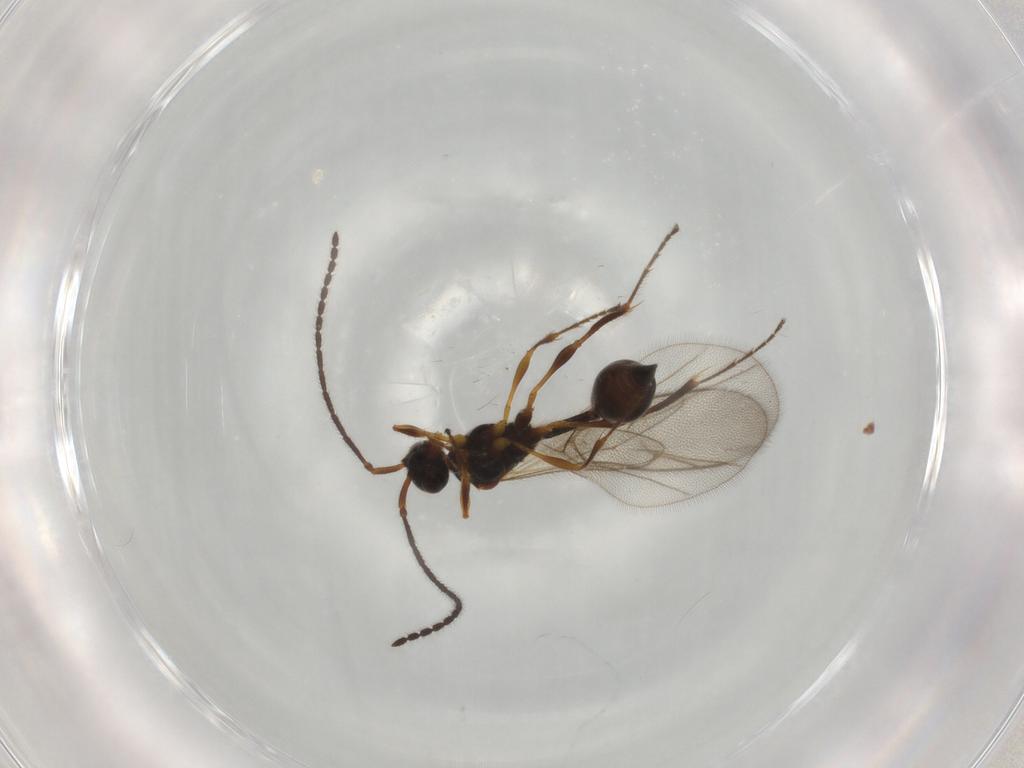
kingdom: Animalia
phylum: Arthropoda
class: Insecta
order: Hymenoptera
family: Diapriidae
